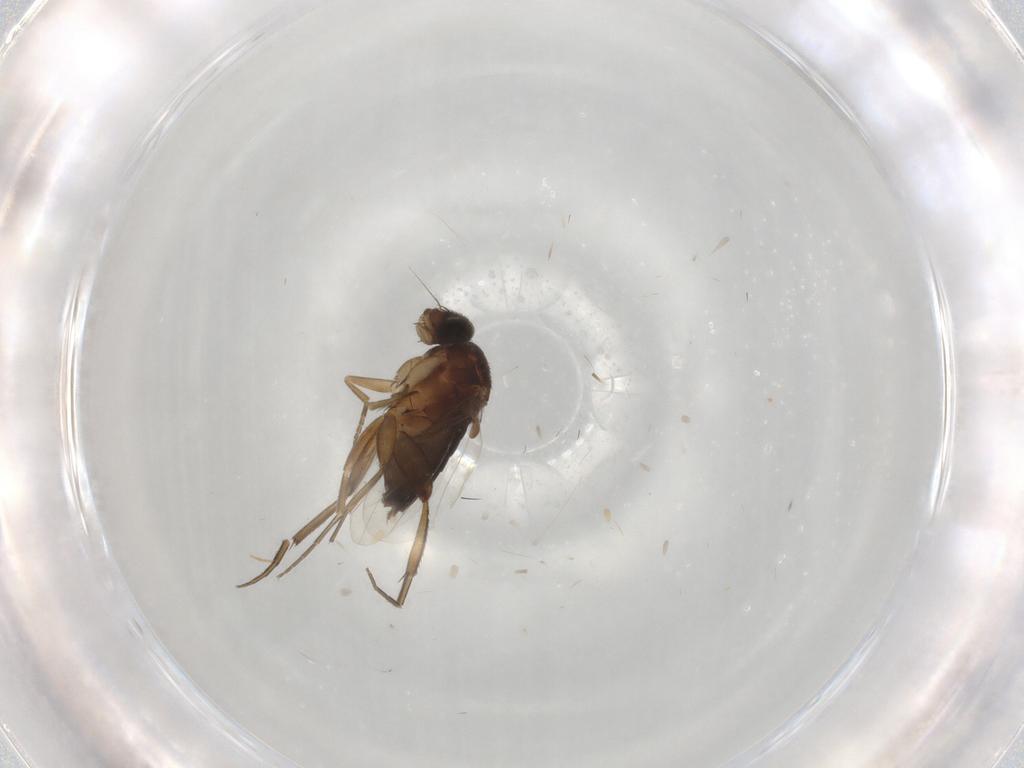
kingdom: Animalia
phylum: Arthropoda
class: Insecta
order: Diptera
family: Phoridae
